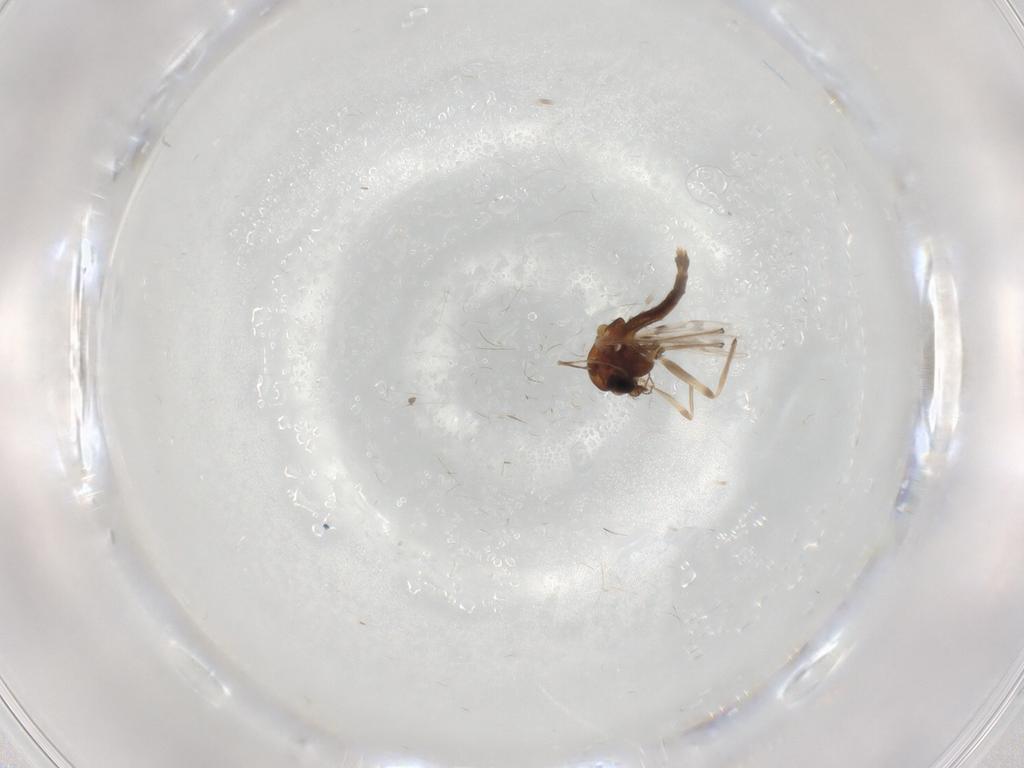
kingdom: Animalia
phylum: Arthropoda
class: Insecta
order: Diptera
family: Chironomidae
